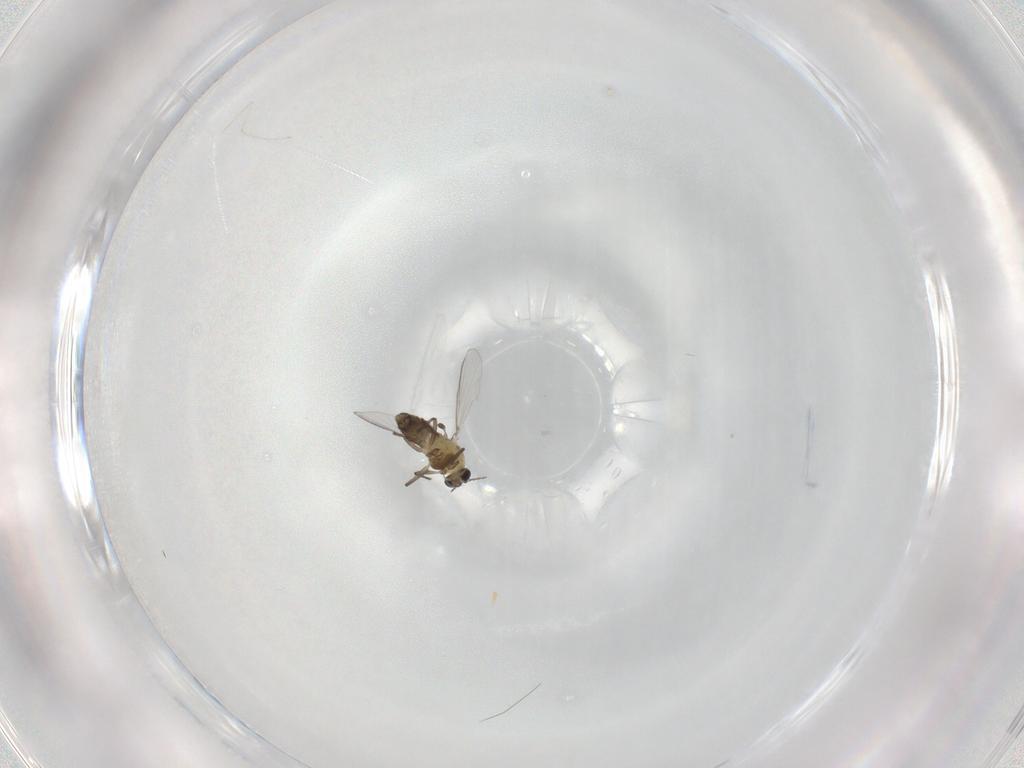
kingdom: Animalia
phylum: Arthropoda
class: Insecta
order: Diptera
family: Chironomidae
